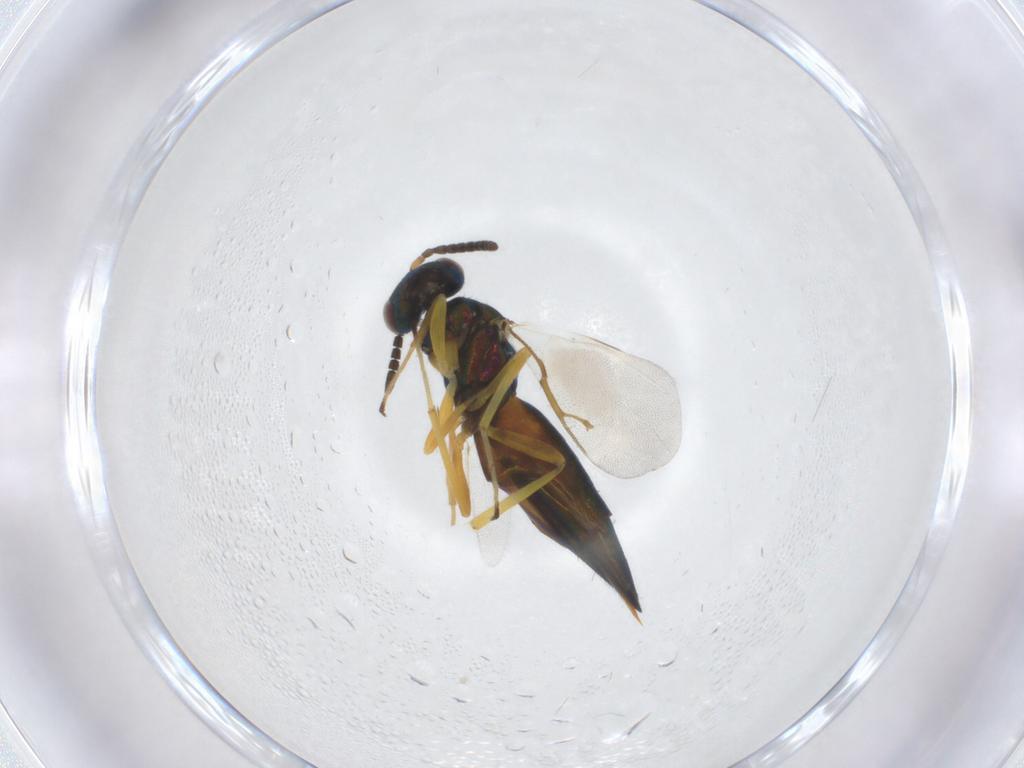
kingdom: Animalia
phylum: Arthropoda
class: Insecta
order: Hymenoptera
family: Pteromalidae
